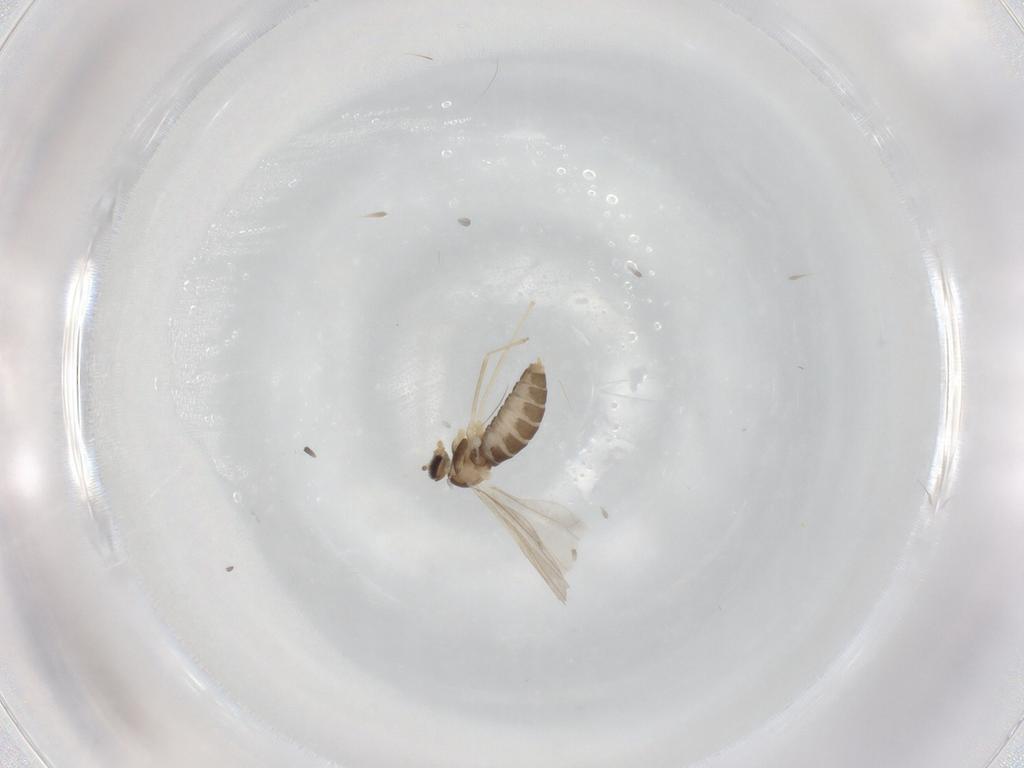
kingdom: Animalia
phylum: Arthropoda
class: Insecta
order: Diptera
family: Cecidomyiidae
